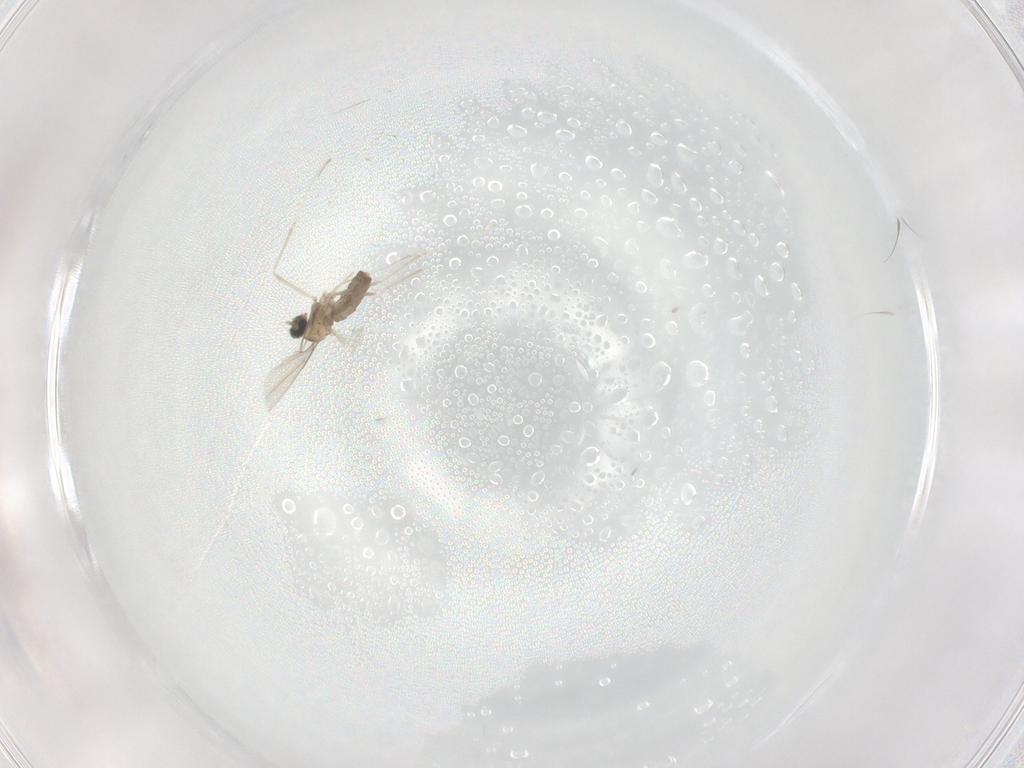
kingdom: Animalia
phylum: Arthropoda
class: Insecta
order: Diptera
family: Cecidomyiidae
